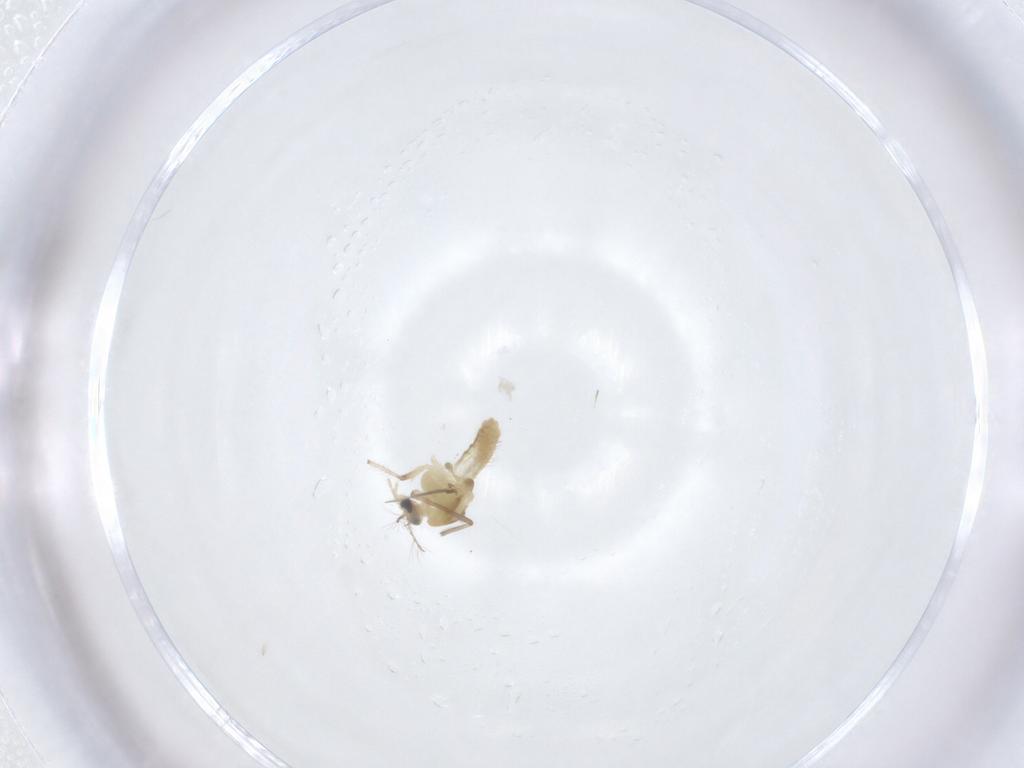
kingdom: Animalia
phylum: Arthropoda
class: Insecta
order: Diptera
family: Chironomidae
